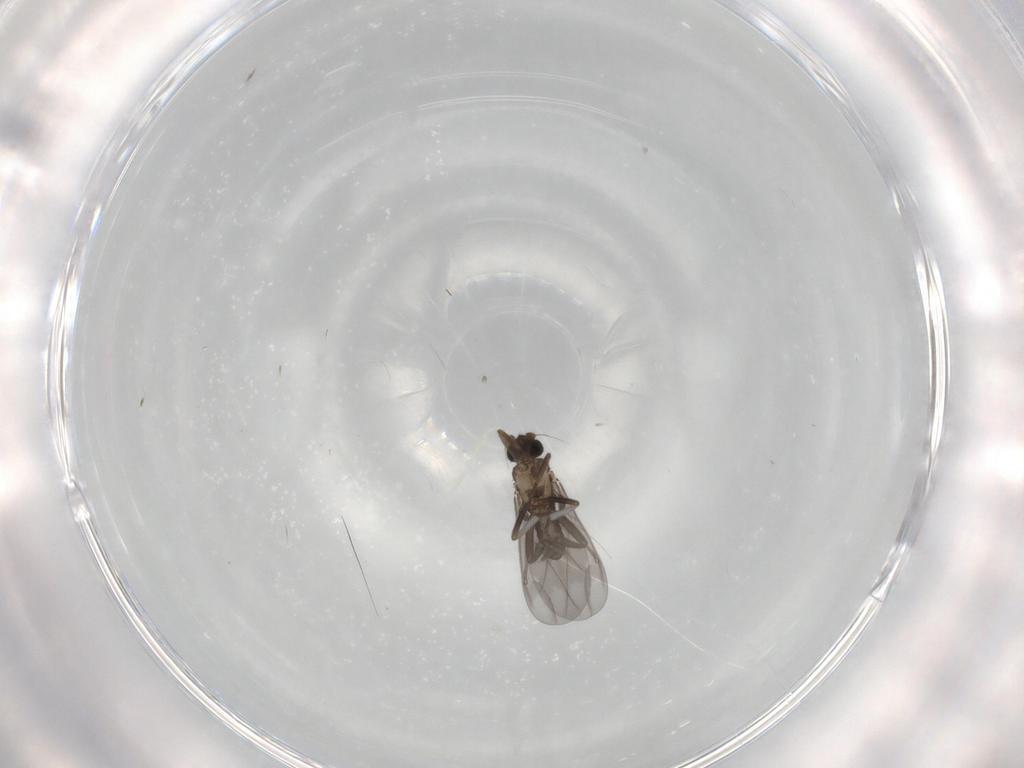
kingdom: Animalia
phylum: Arthropoda
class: Insecta
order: Diptera
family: Phoridae
